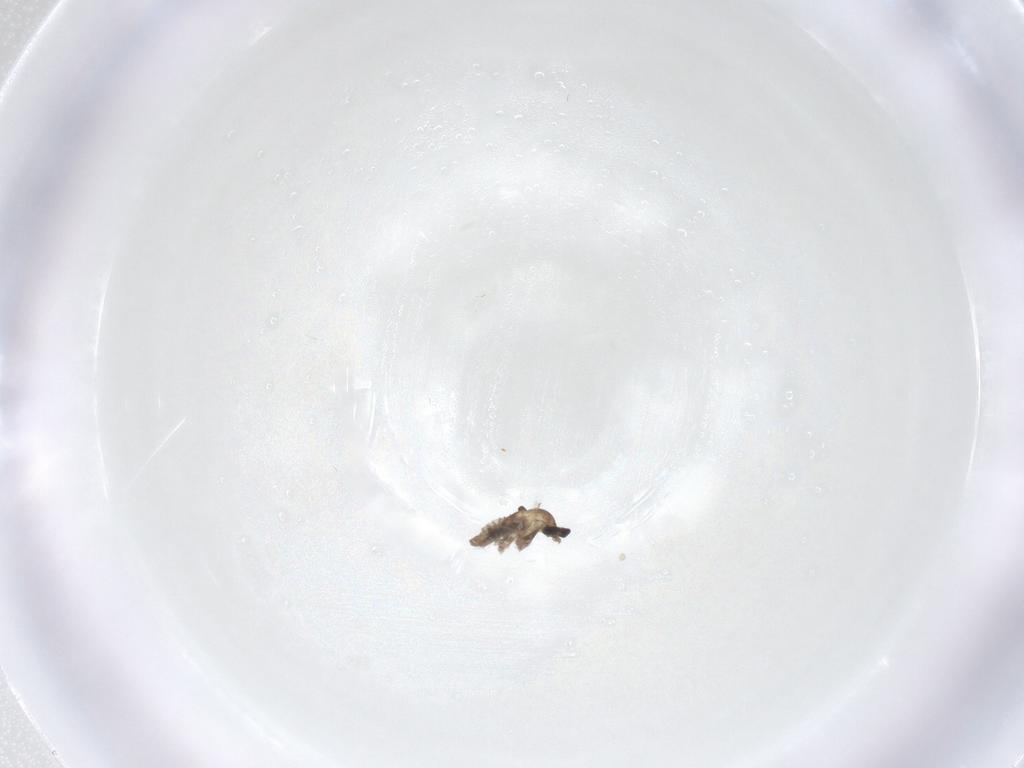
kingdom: Animalia
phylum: Arthropoda
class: Insecta
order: Diptera
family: Cecidomyiidae
